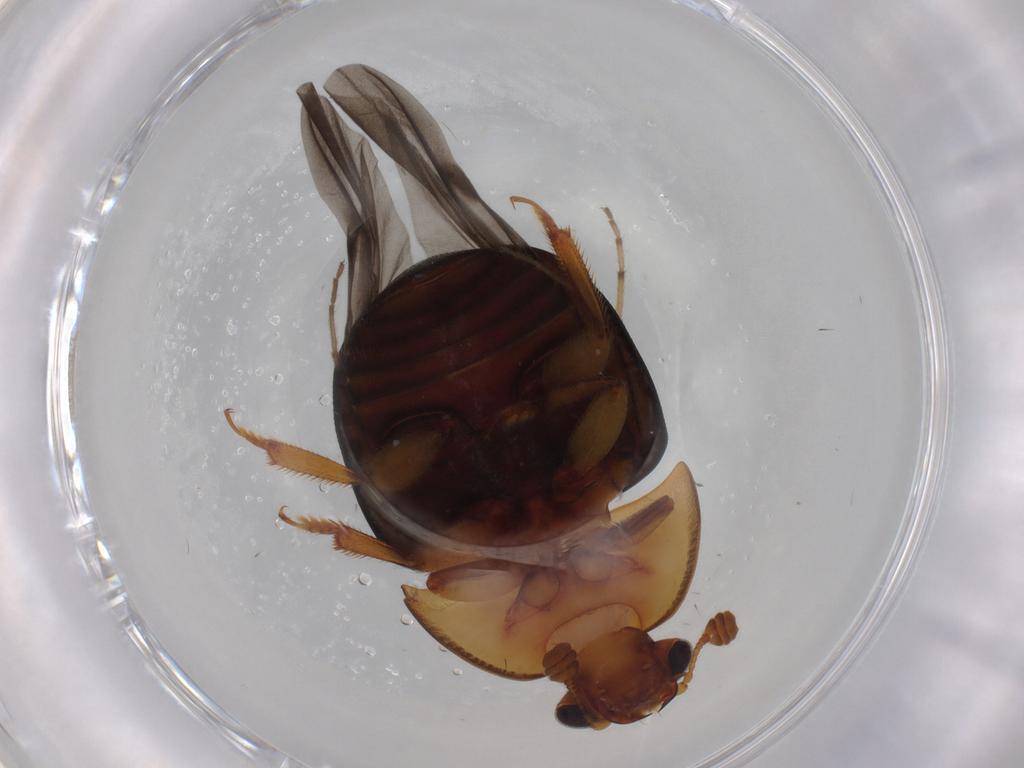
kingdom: Animalia
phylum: Arthropoda
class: Insecta
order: Coleoptera
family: Nitidulidae
